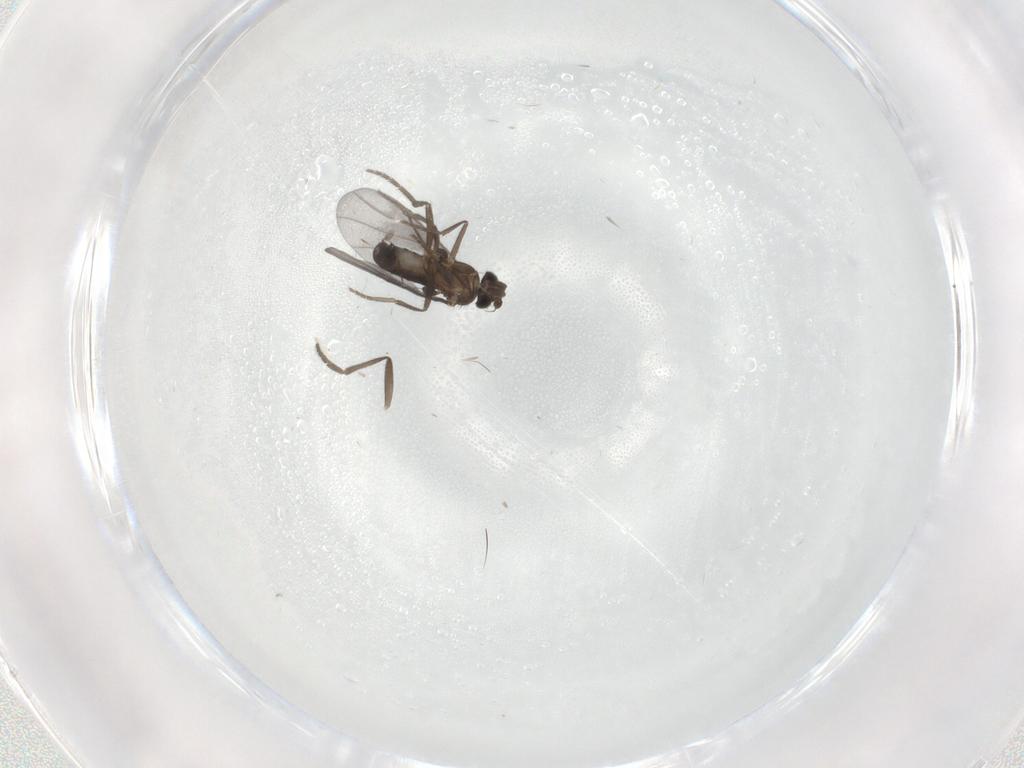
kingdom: Animalia
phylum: Arthropoda
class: Insecta
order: Diptera
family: Phoridae
